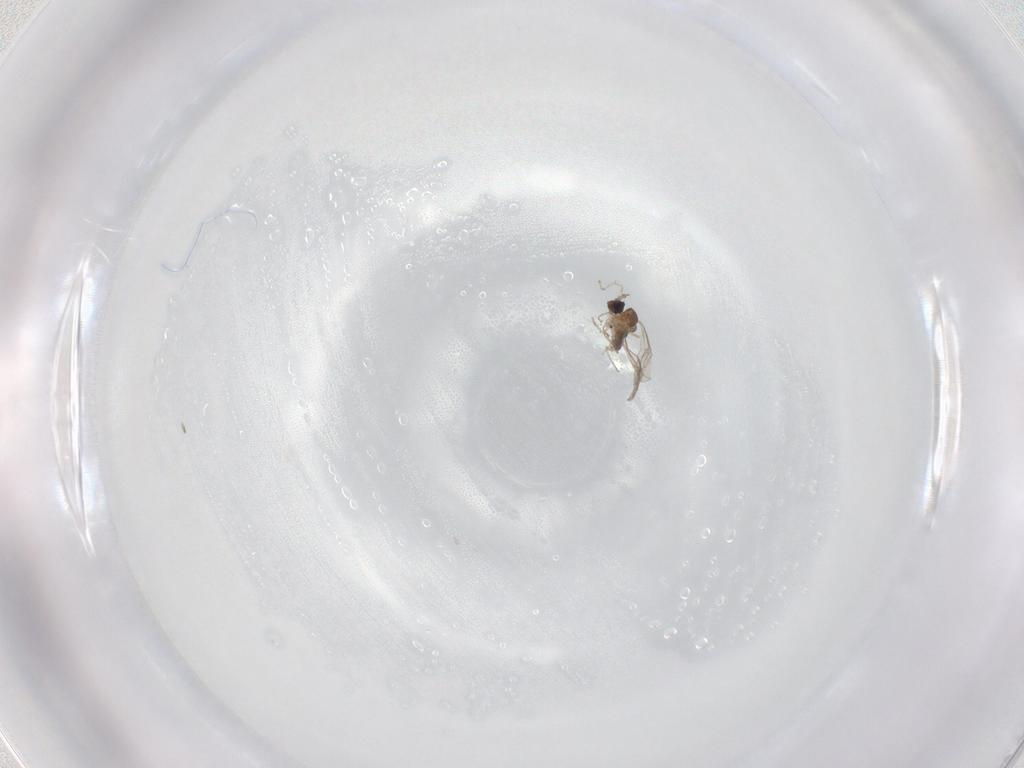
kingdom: Animalia
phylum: Arthropoda
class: Insecta
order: Diptera
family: Cecidomyiidae
